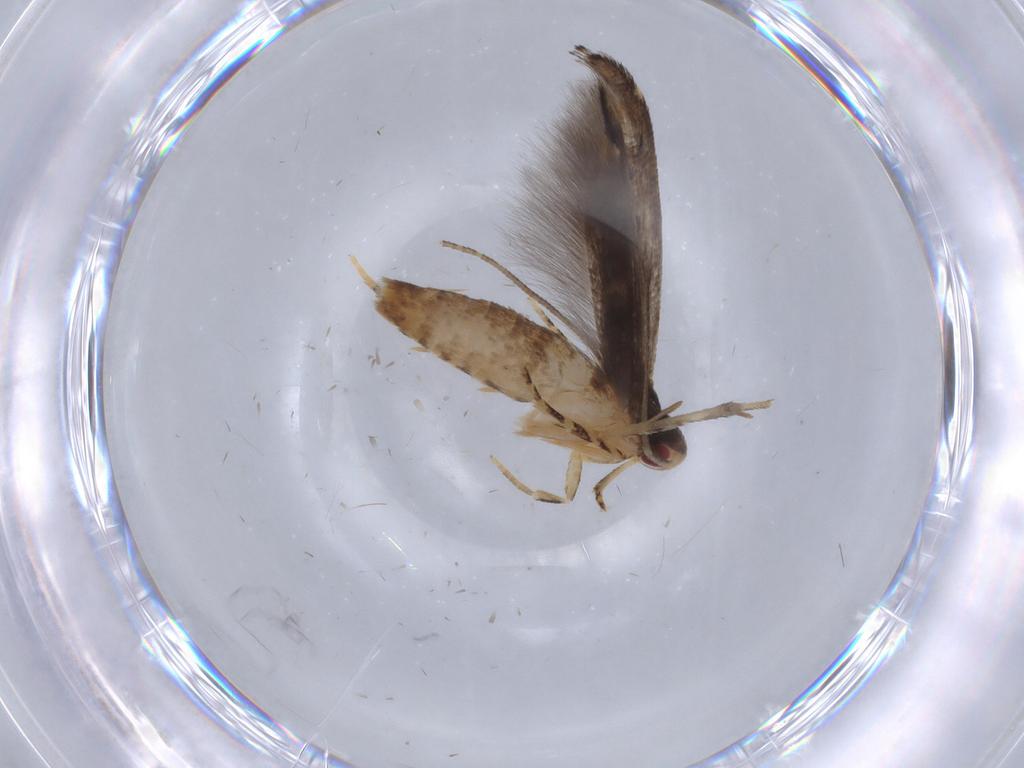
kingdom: Animalia
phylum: Arthropoda
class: Insecta
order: Lepidoptera
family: Momphidae
